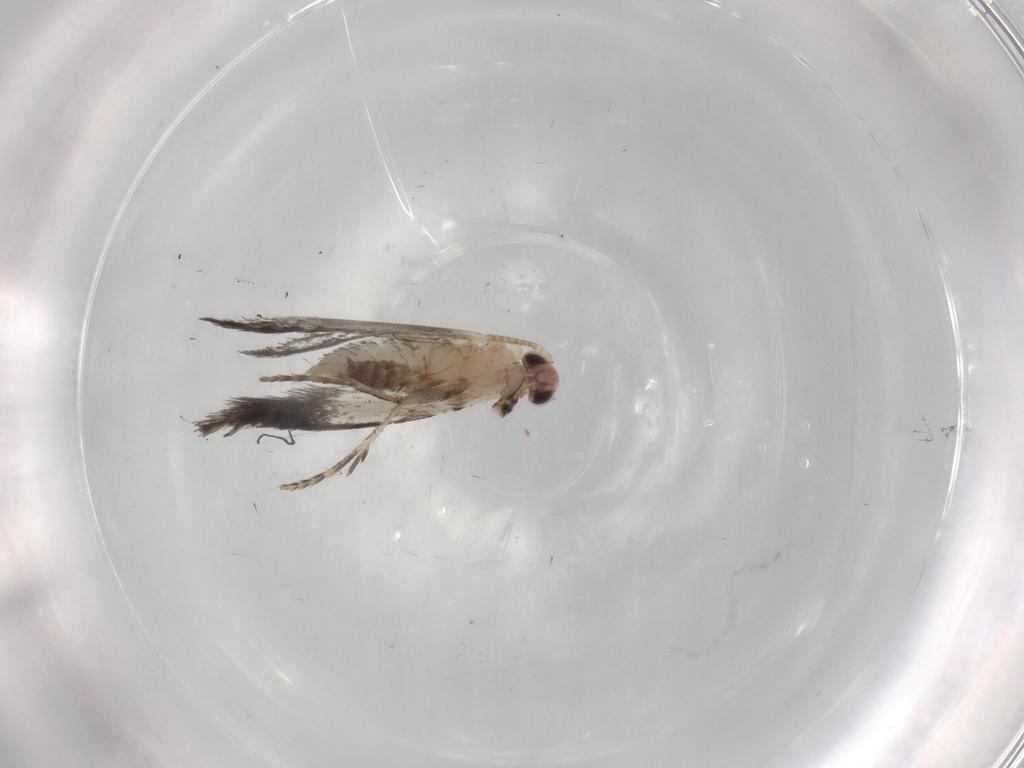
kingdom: Animalia
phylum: Arthropoda
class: Insecta
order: Lepidoptera
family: Tineidae
